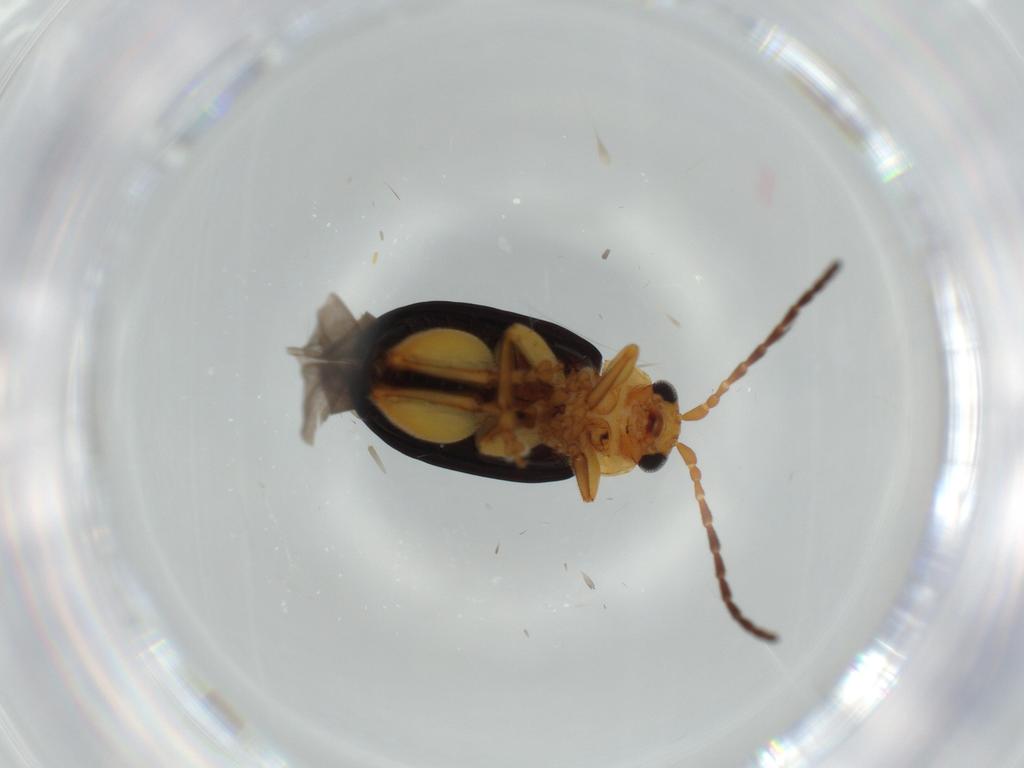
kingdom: Animalia
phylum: Arthropoda
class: Insecta
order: Coleoptera
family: Chrysomelidae
